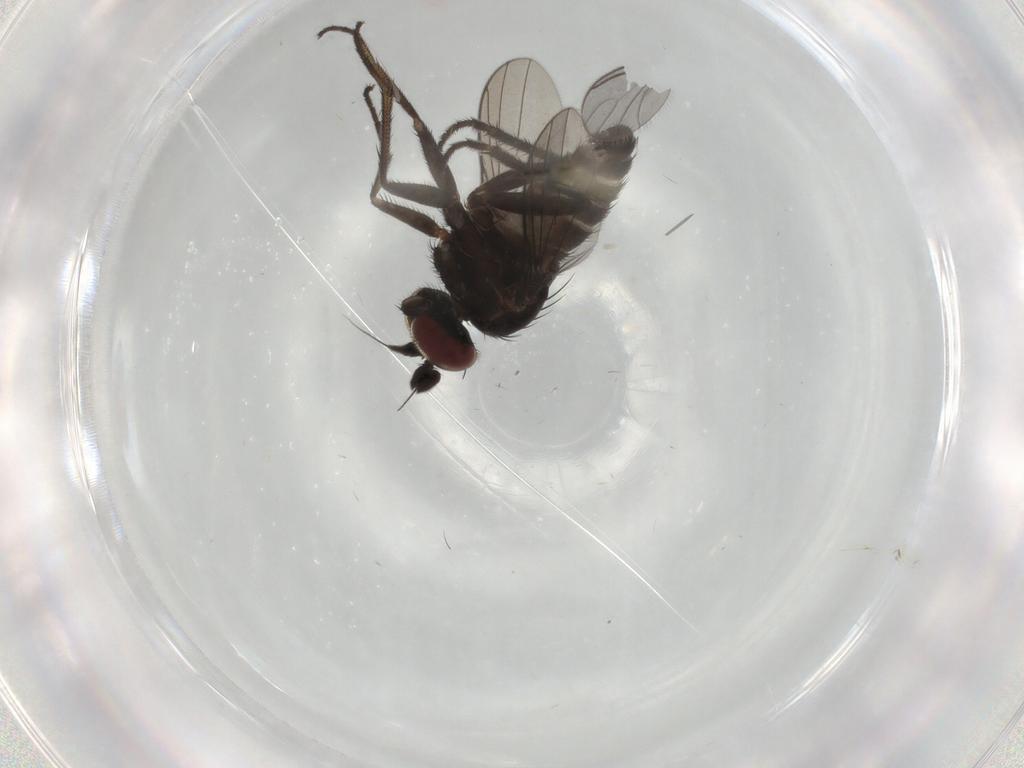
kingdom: Animalia
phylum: Arthropoda
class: Insecta
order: Diptera
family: Dolichopodidae
